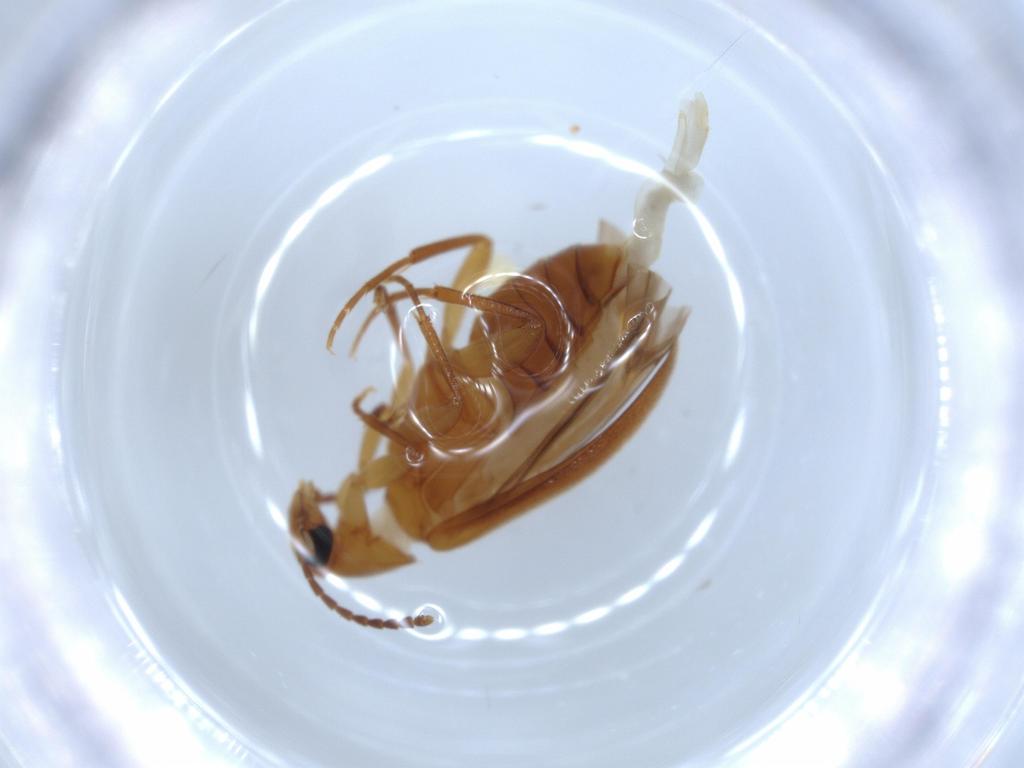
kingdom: Animalia
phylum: Arthropoda
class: Insecta
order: Coleoptera
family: Scraptiidae
